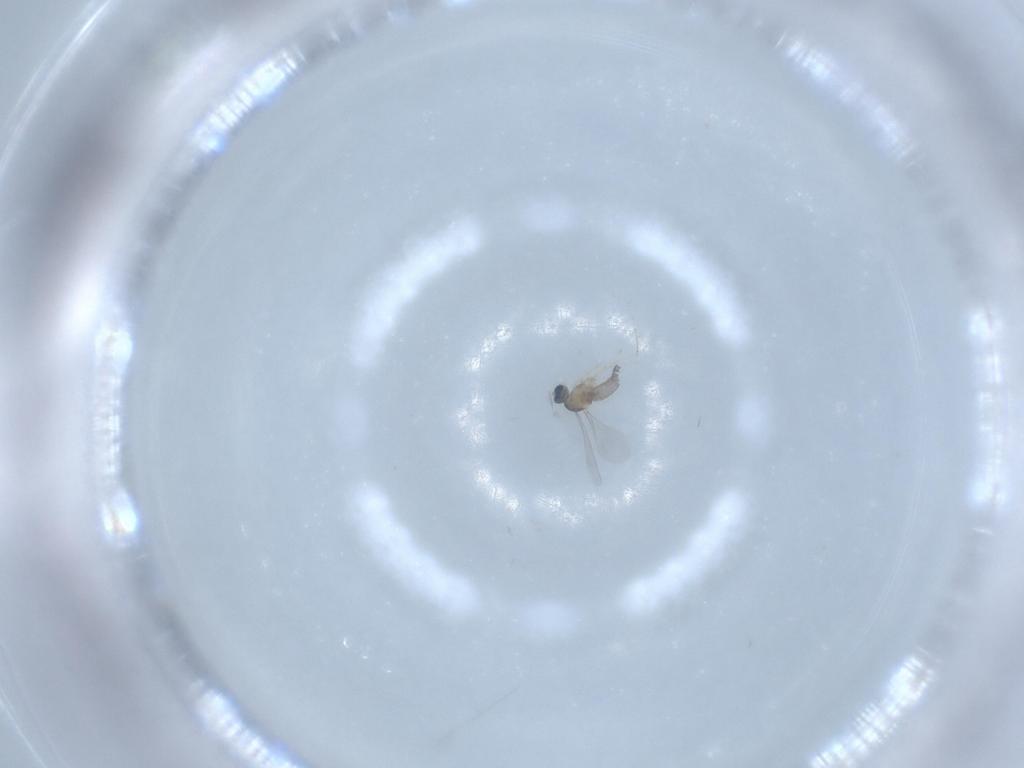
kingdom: Animalia
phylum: Arthropoda
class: Insecta
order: Diptera
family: Cecidomyiidae
